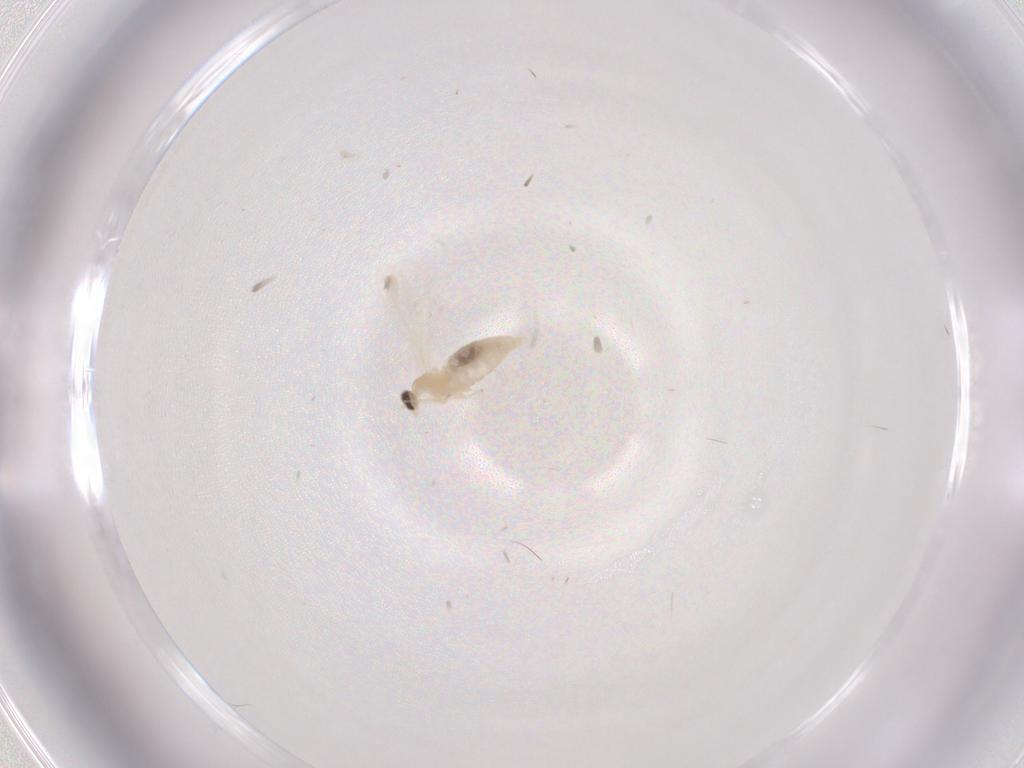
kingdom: Animalia
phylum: Arthropoda
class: Insecta
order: Diptera
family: Cecidomyiidae
